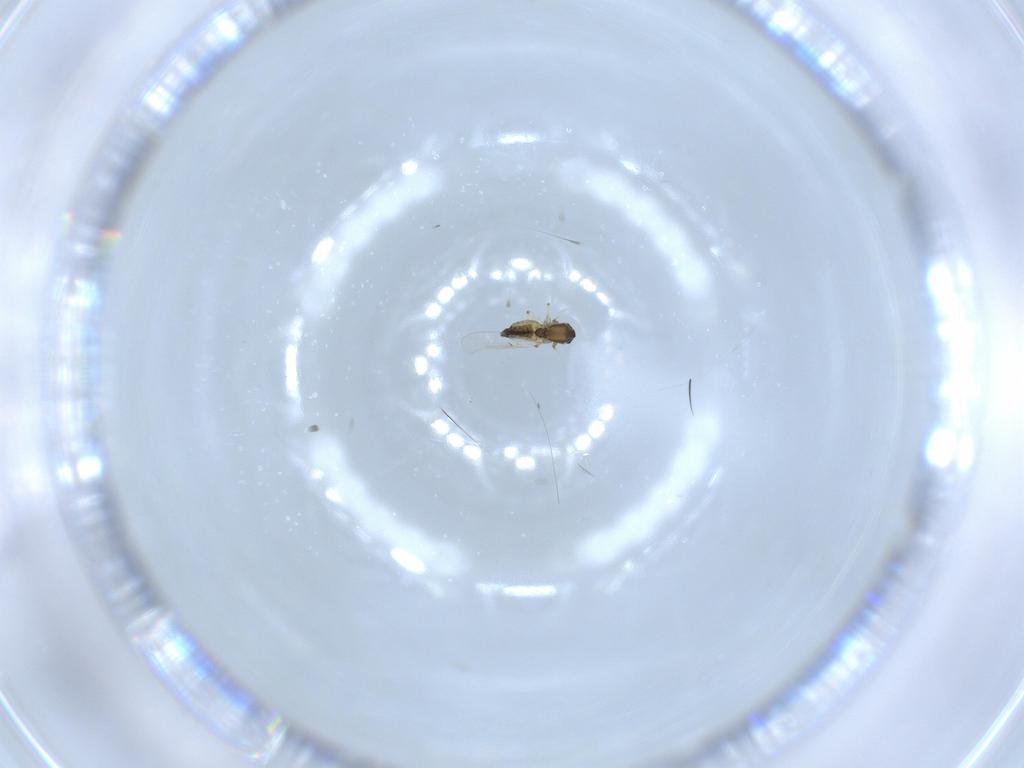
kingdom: Animalia
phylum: Arthropoda
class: Insecta
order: Diptera
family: Chironomidae
